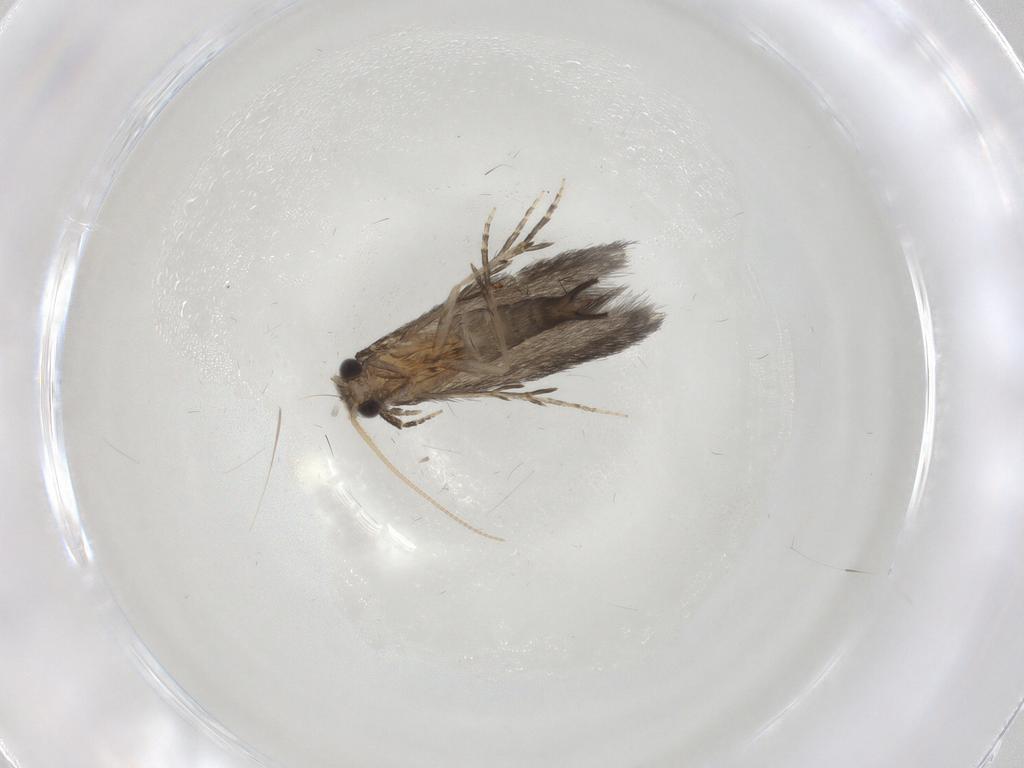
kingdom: Animalia
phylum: Arthropoda
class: Insecta
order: Trichoptera
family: Hydroptilidae
